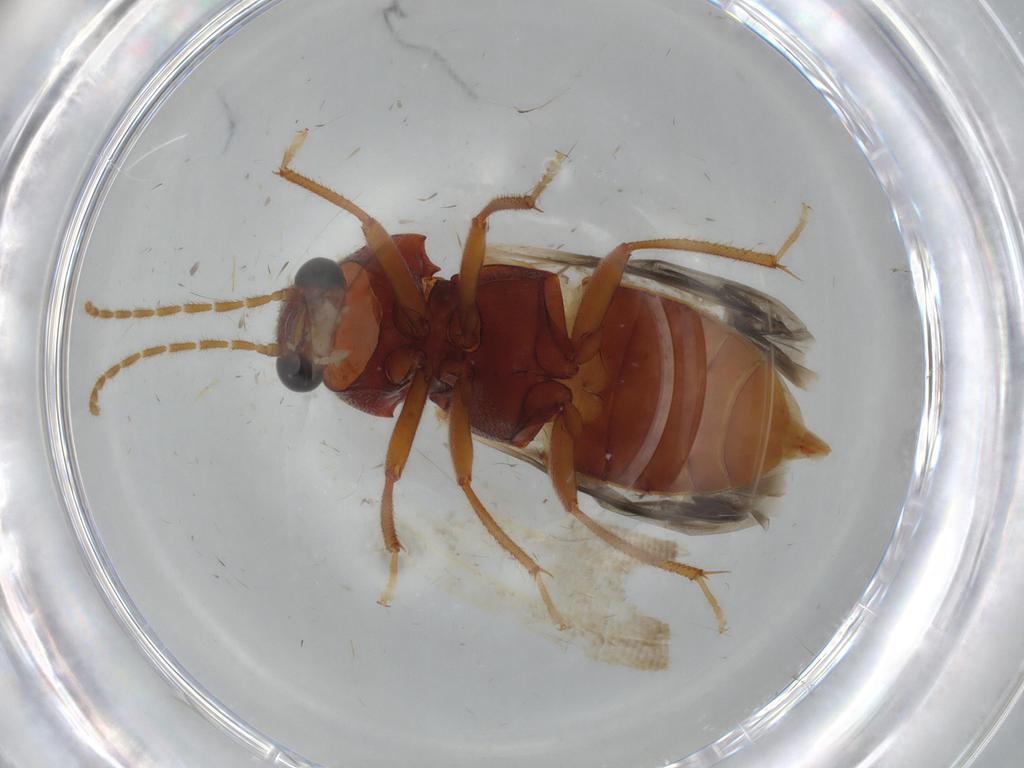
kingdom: Animalia
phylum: Arthropoda
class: Insecta
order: Coleoptera
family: Ptilodactylidae
